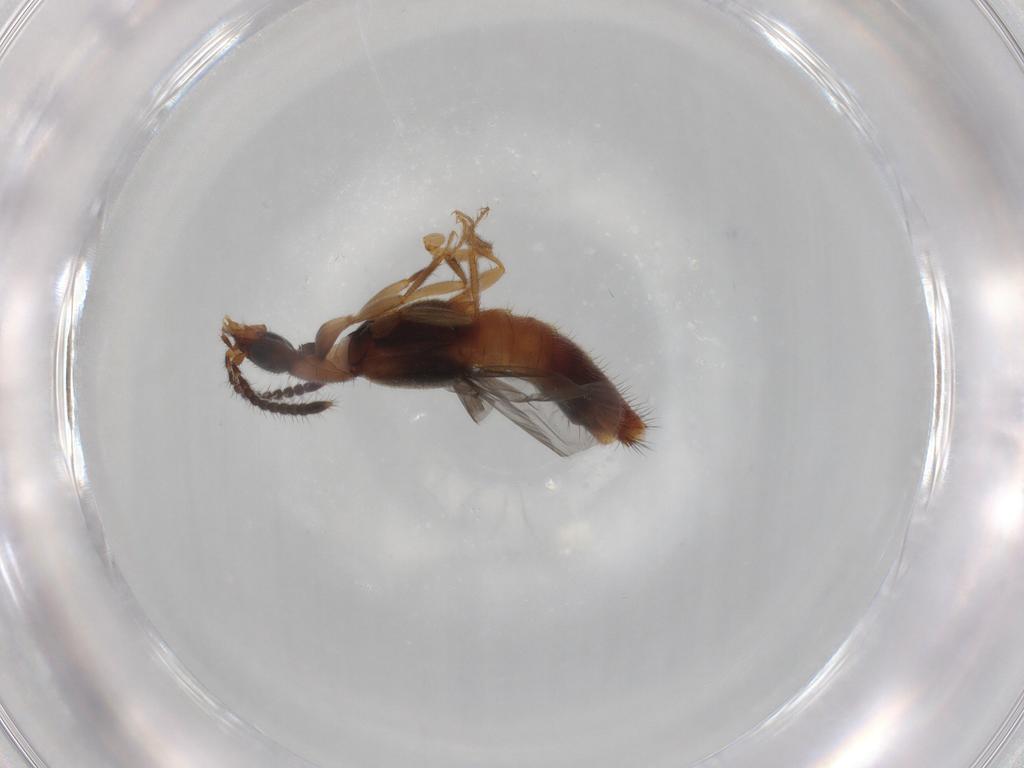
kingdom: Animalia
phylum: Arthropoda
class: Insecta
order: Coleoptera
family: Staphylinidae
